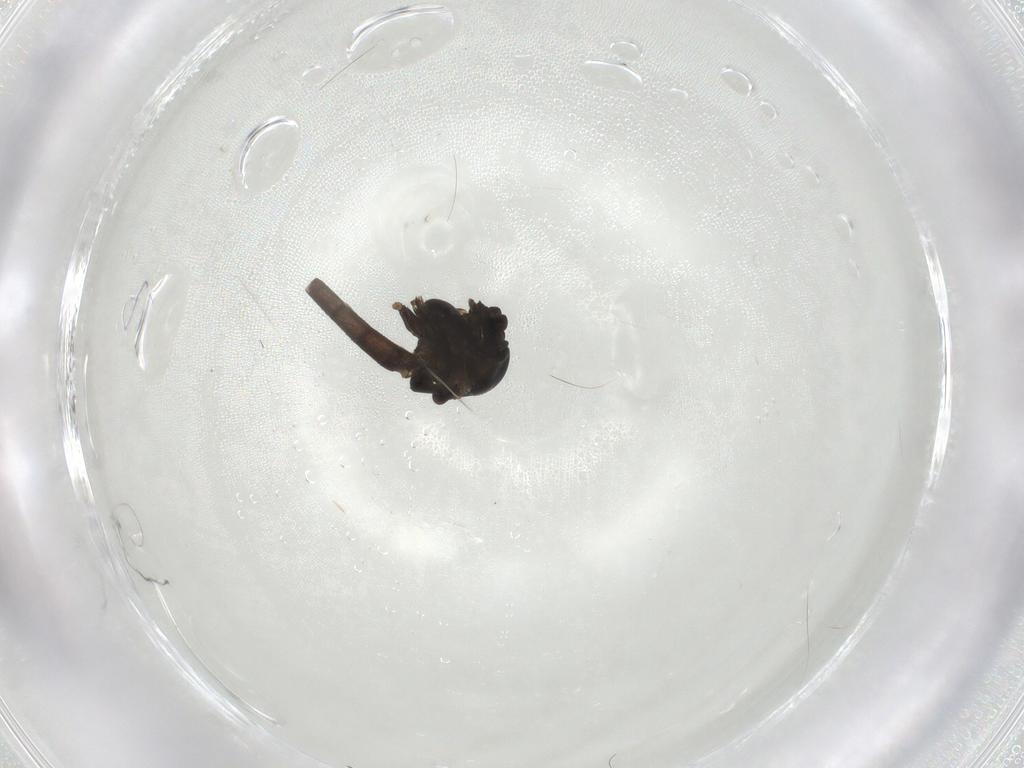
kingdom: Animalia
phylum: Arthropoda
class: Insecta
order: Diptera
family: Chironomidae
